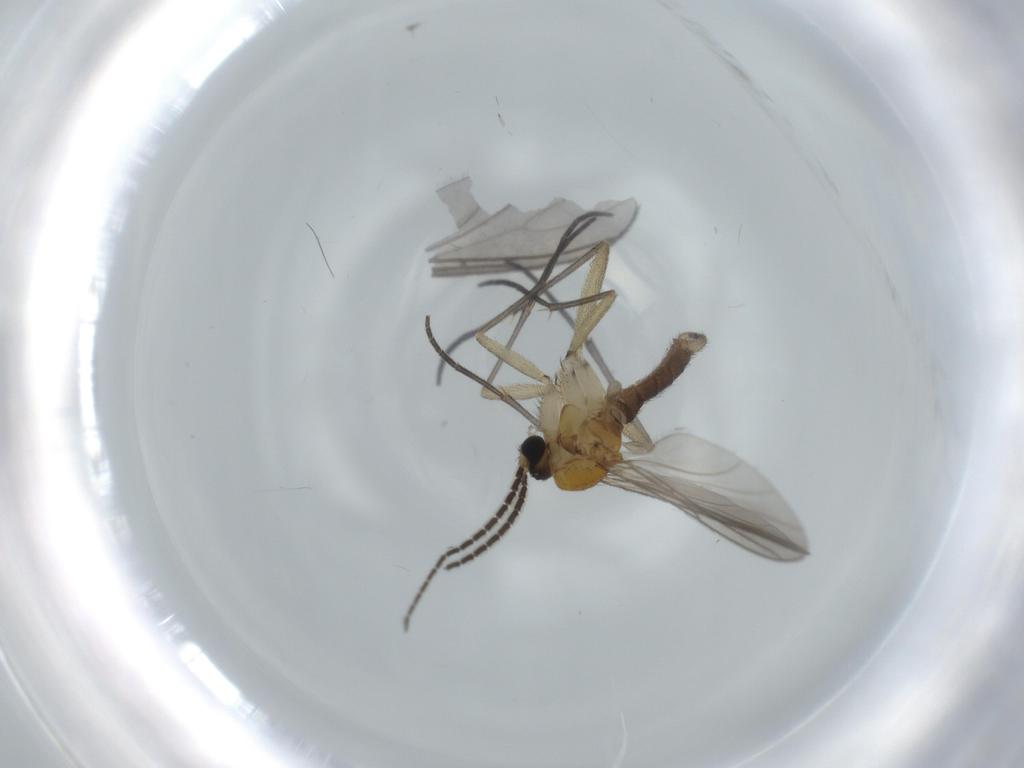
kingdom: Animalia
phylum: Arthropoda
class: Insecta
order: Diptera
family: Sciaridae
